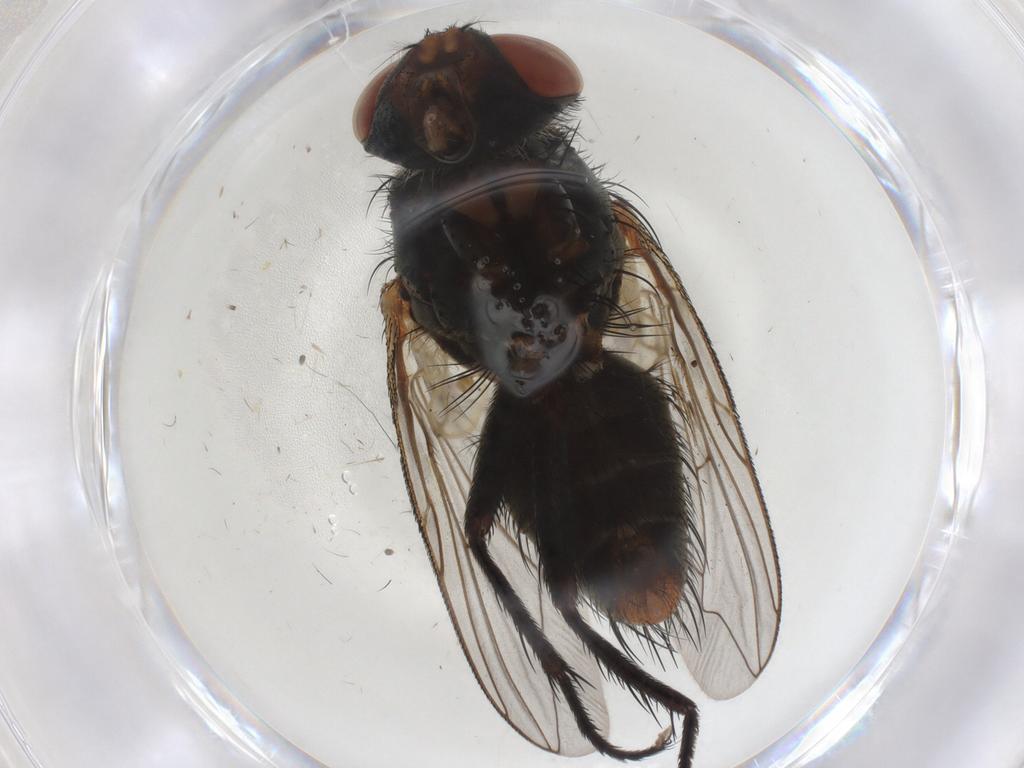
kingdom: Animalia
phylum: Arthropoda
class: Insecta
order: Diptera
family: Sarcophagidae
